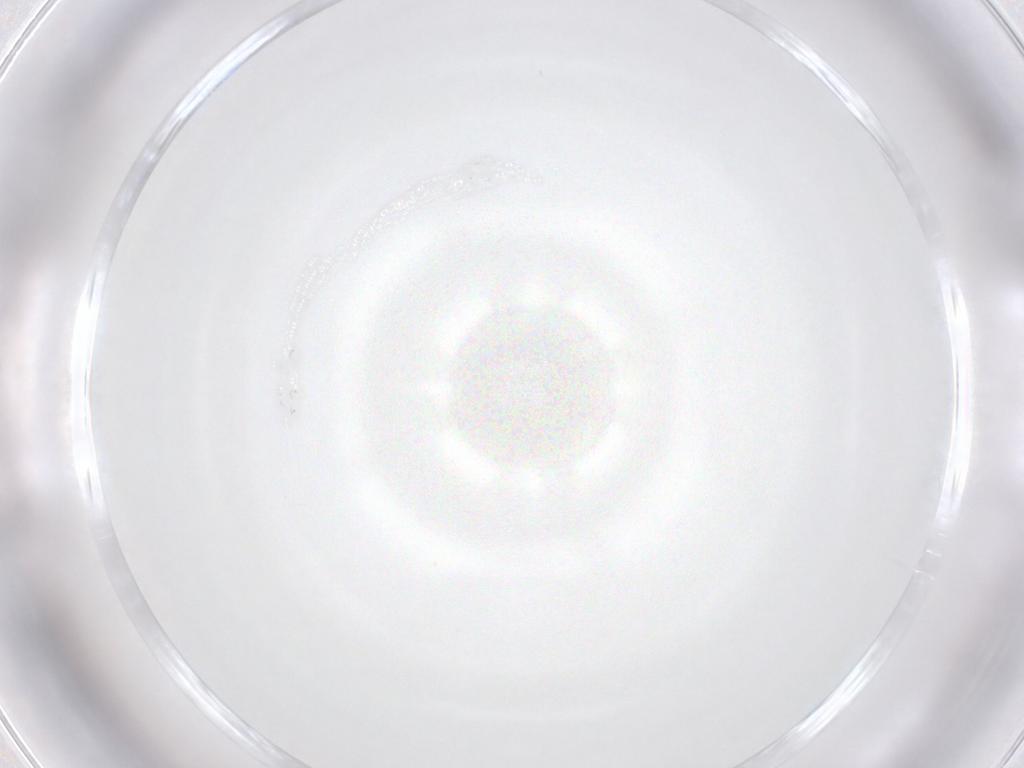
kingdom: Animalia
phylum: Arthropoda
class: Insecta
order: Diptera
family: Phoridae
